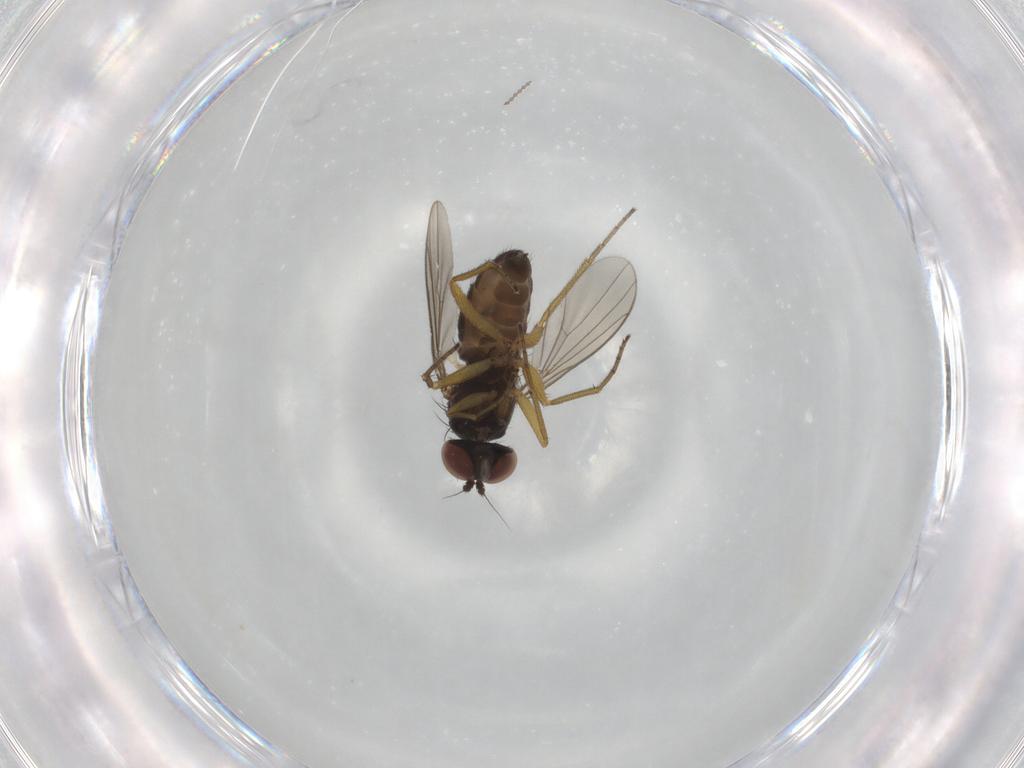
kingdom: Animalia
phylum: Arthropoda
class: Insecta
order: Diptera
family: Dolichopodidae
